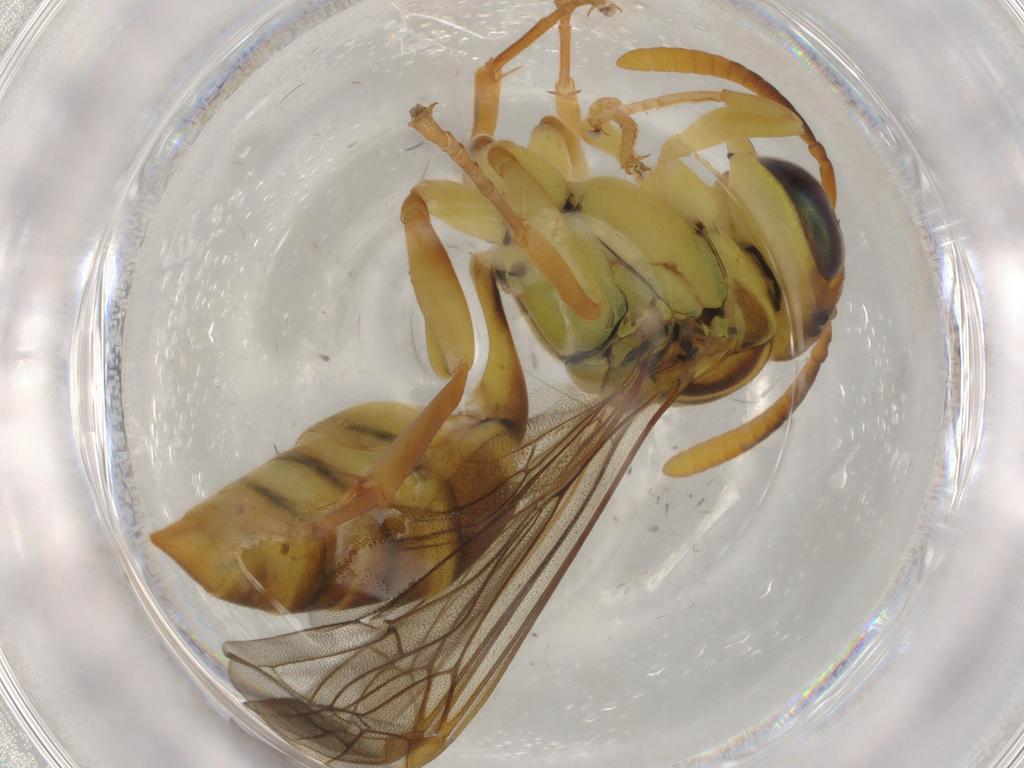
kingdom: Animalia
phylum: Arthropoda
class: Insecta
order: Hymenoptera
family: Vespidae
